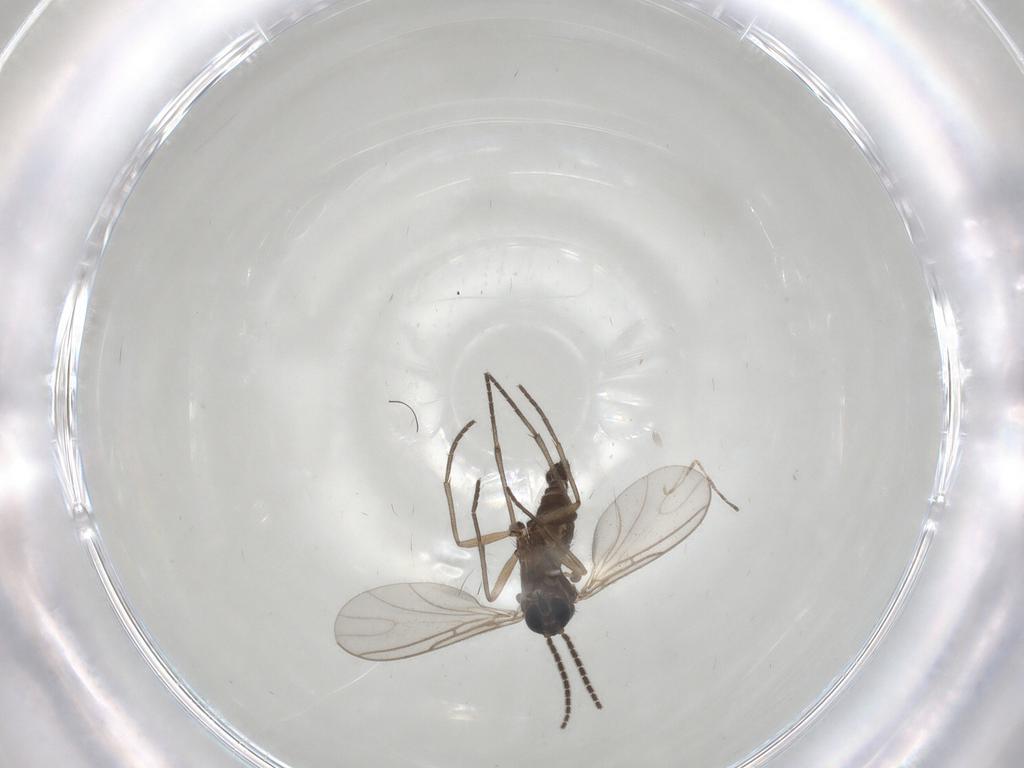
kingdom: Animalia
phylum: Arthropoda
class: Insecta
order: Diptera
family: Sciaridae
